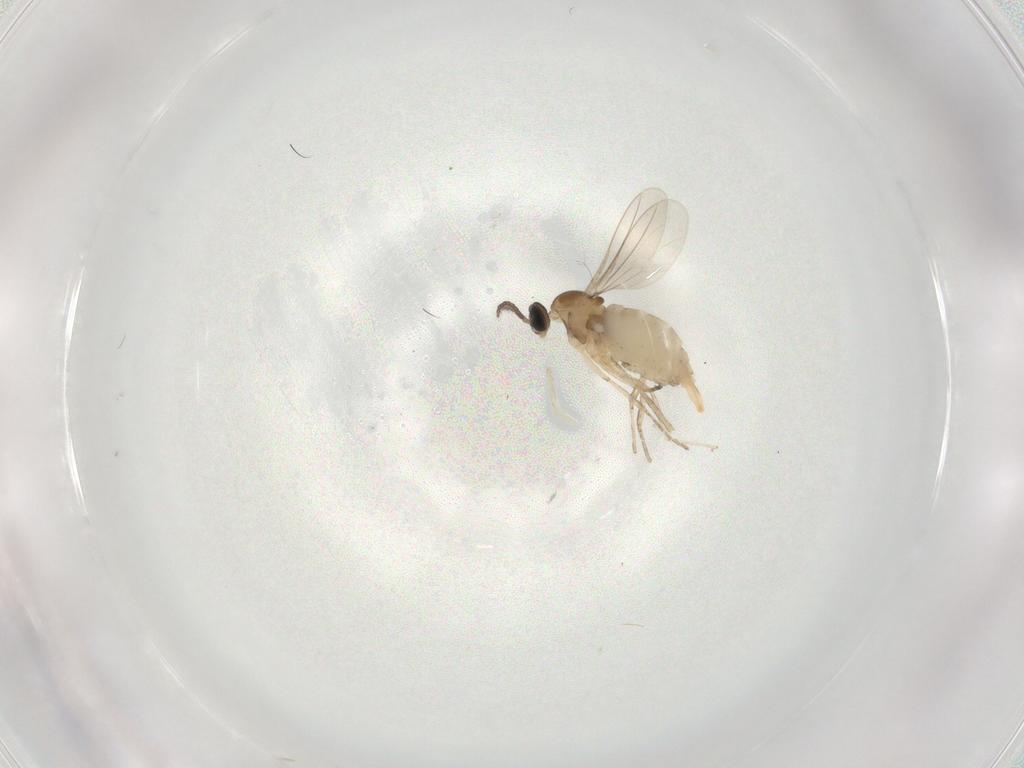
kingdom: Animalia
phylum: Arthropoda
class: Insecta
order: Diptera
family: Cecidomyiidae
